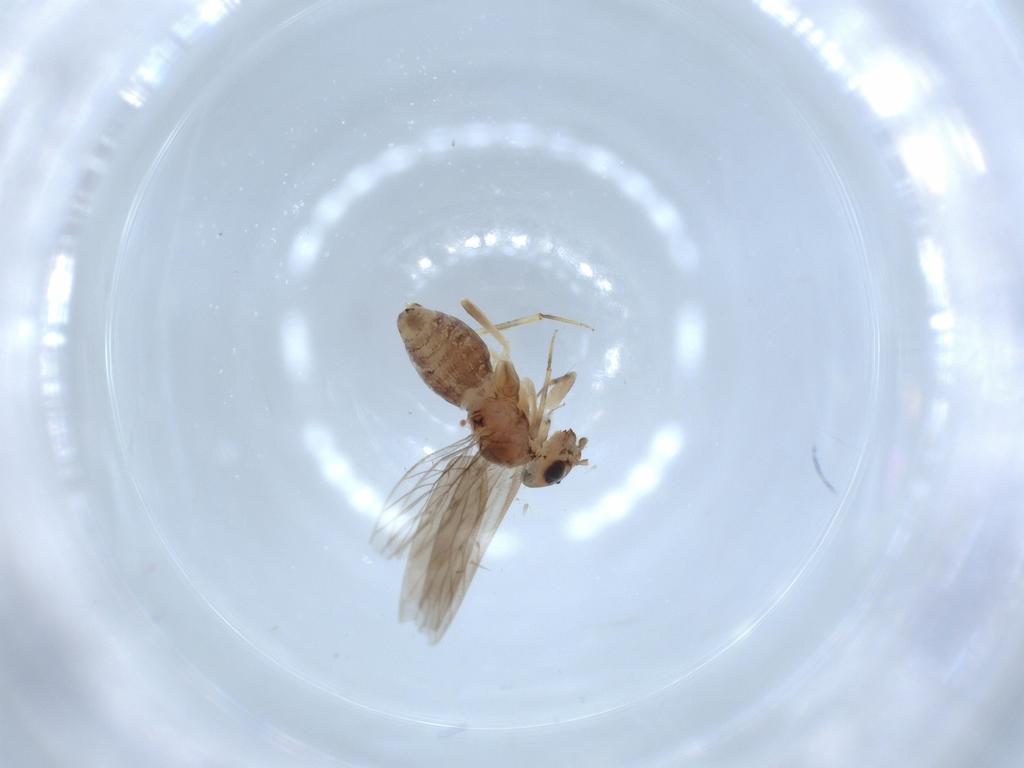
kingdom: Animalia
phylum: Arthropoda
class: Insecta
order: Psocodea
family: Lepidopsocidae
